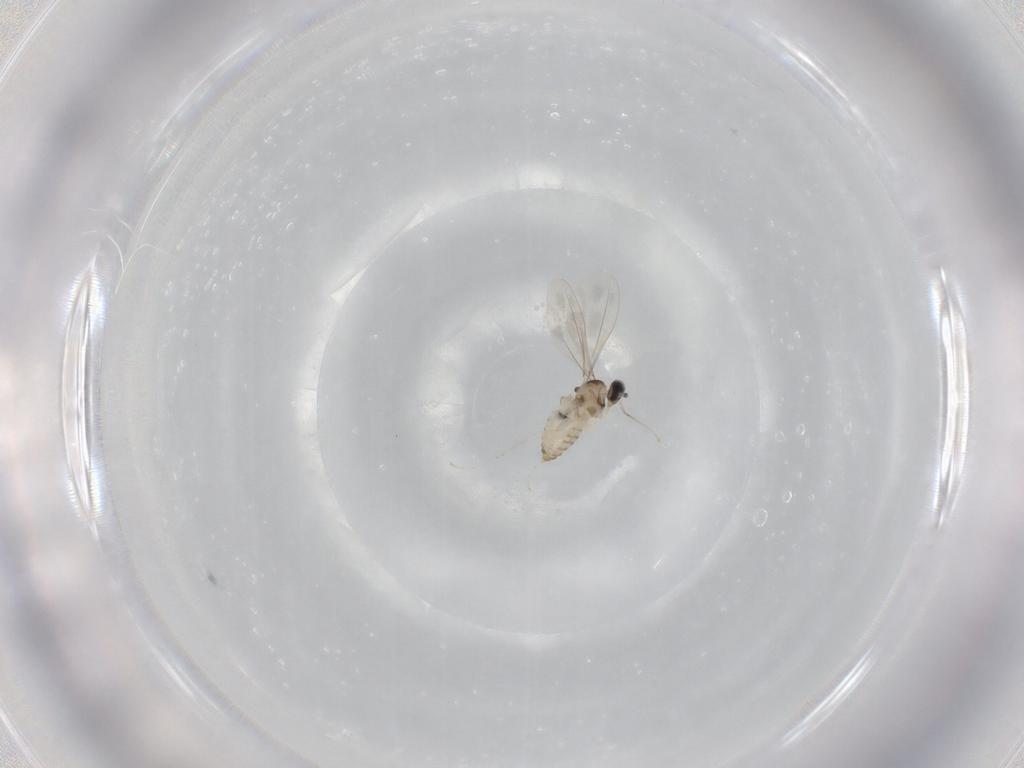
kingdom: Animalia
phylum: Arthropoda
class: Insecta
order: Diptera
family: Cecidomyiidae
